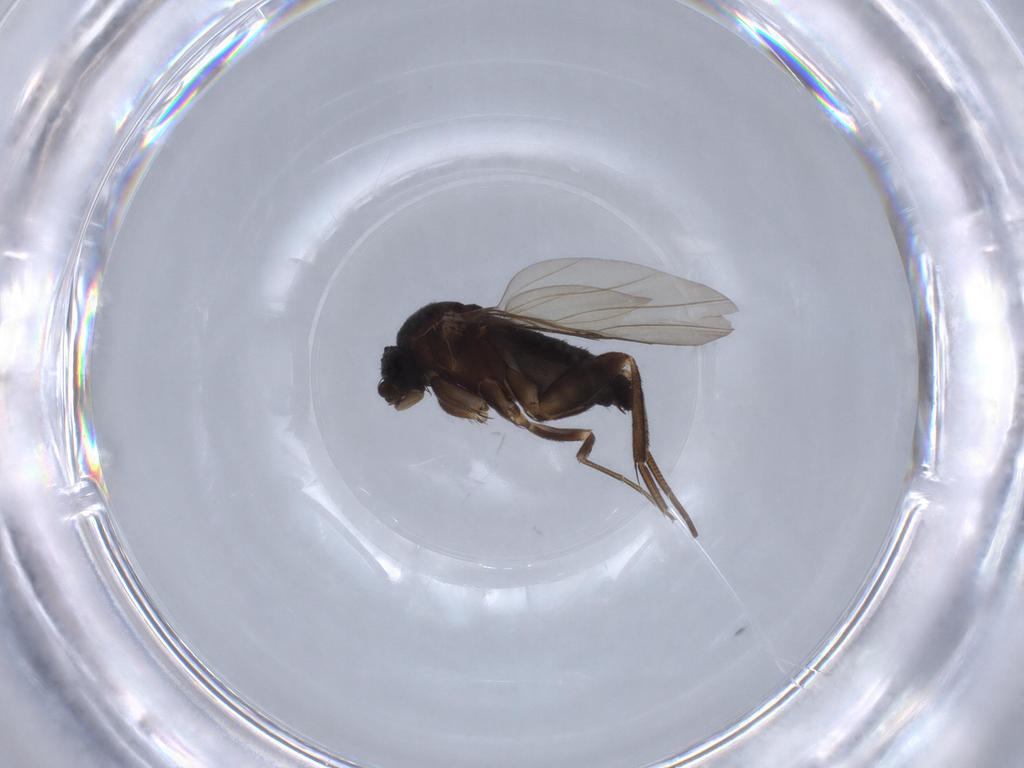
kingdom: Animalia
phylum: Arthropoda
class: Insecta
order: Diptera
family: Phoridae
